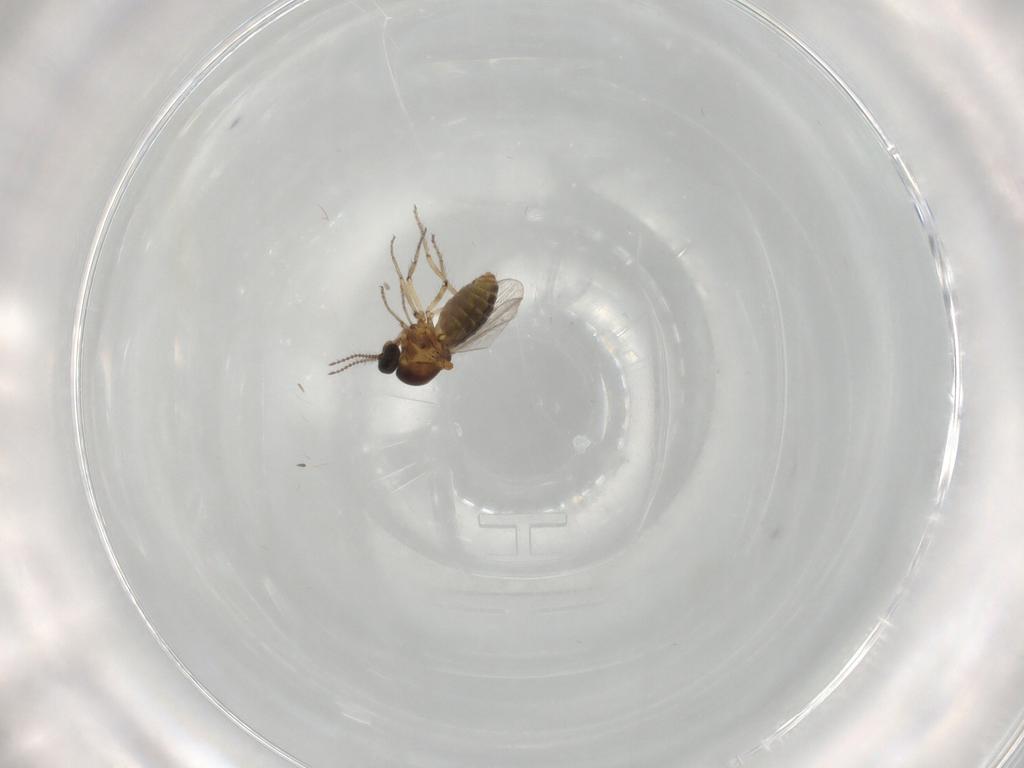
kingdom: Animalia
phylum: Arthropoda
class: Insecta
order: Diptera
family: Ceratopogonidae
